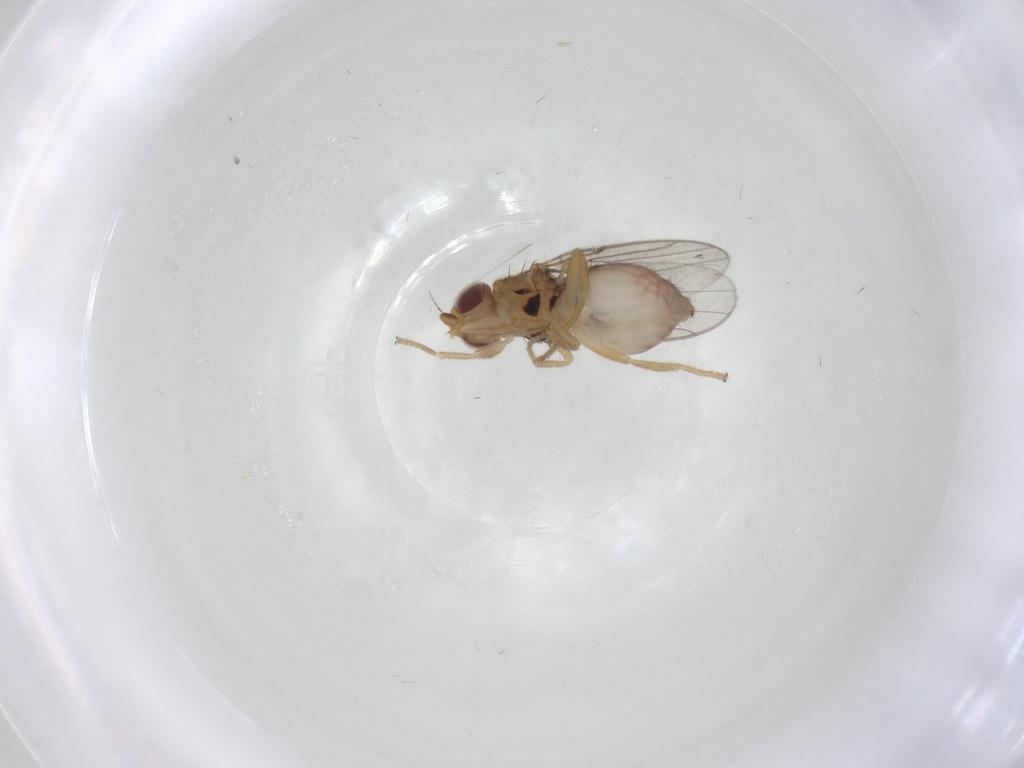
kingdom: Animalia
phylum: Arthropoda
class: Insecta
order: Diptera
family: Chloropidae
